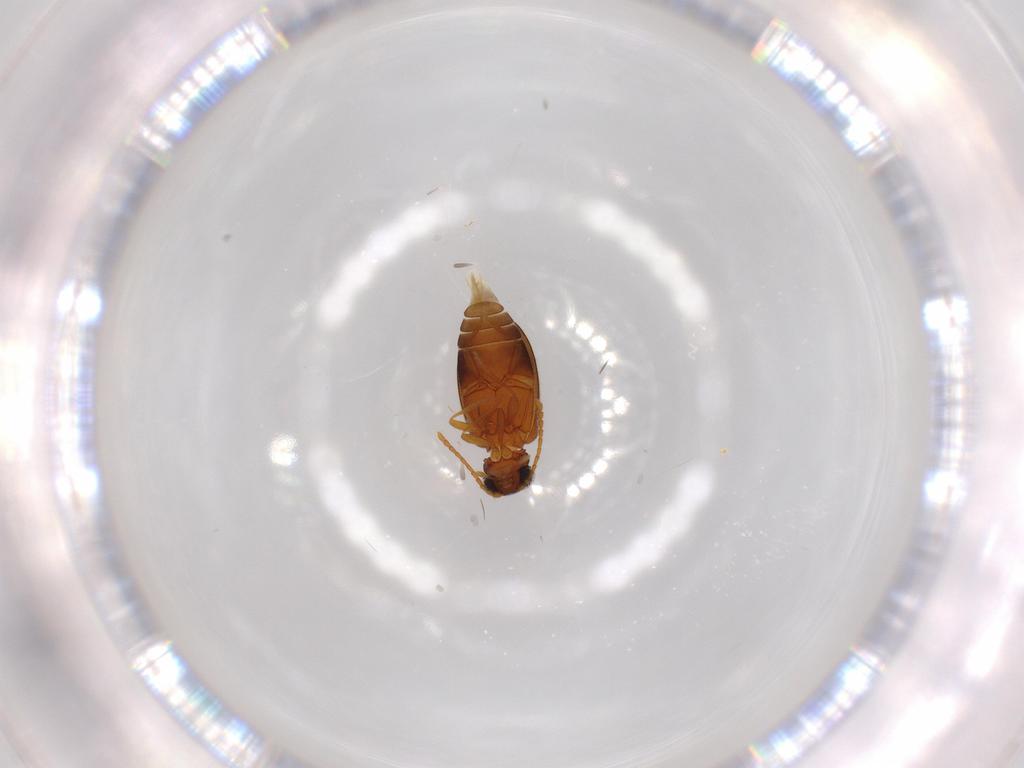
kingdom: Animalia
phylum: Arthropoda
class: Insecta
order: Coleoptera
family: Aderidae
